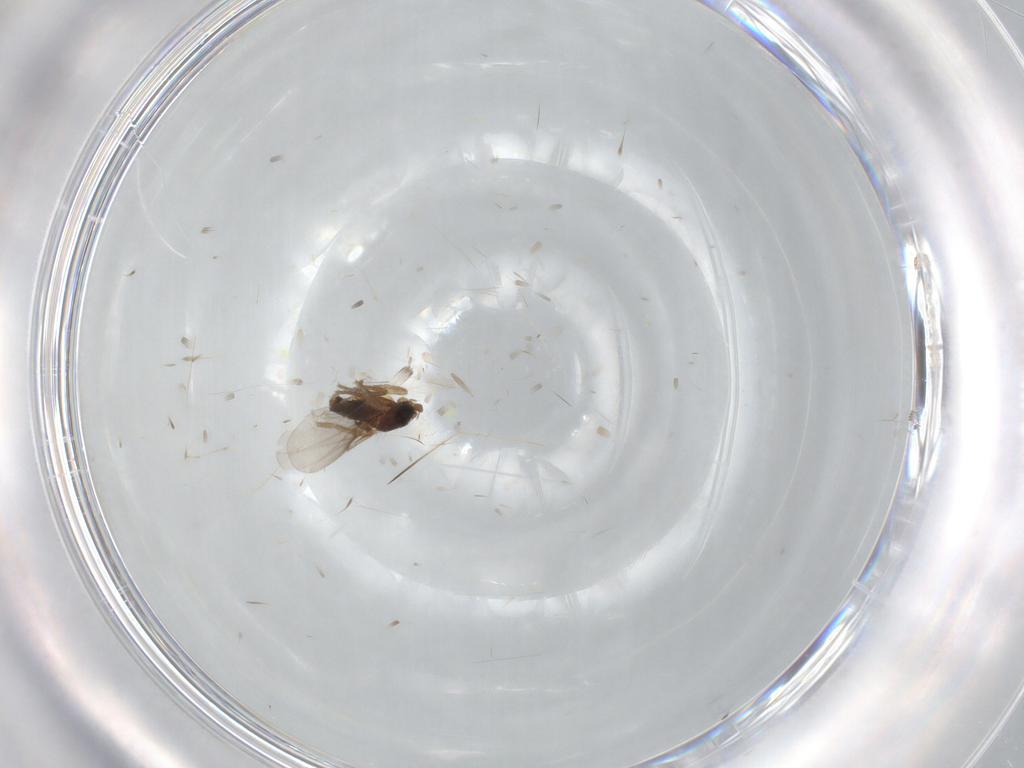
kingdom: Animalia
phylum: Arthropoda
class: Insecta
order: Diptera
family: Phoridae
